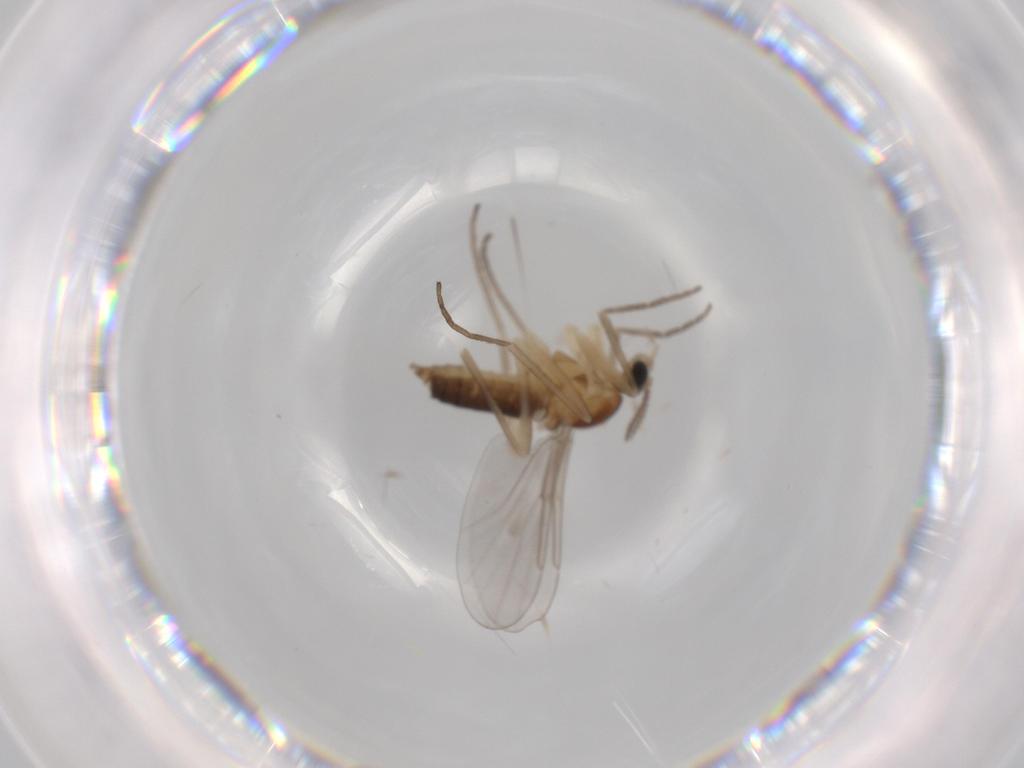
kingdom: Animalia
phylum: Arthropoda
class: Insecta
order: Diptera
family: Cecidomyiidae
